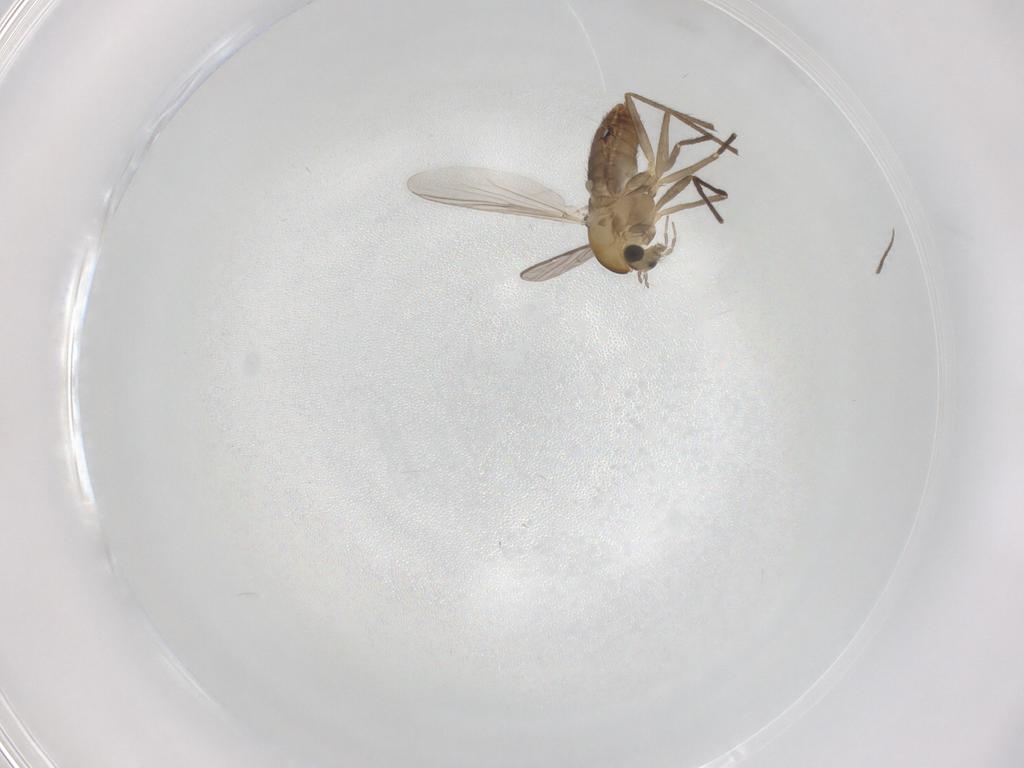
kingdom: Animalia
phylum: Arthropoda
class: Insecta
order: Diptera
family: Chironomidae
